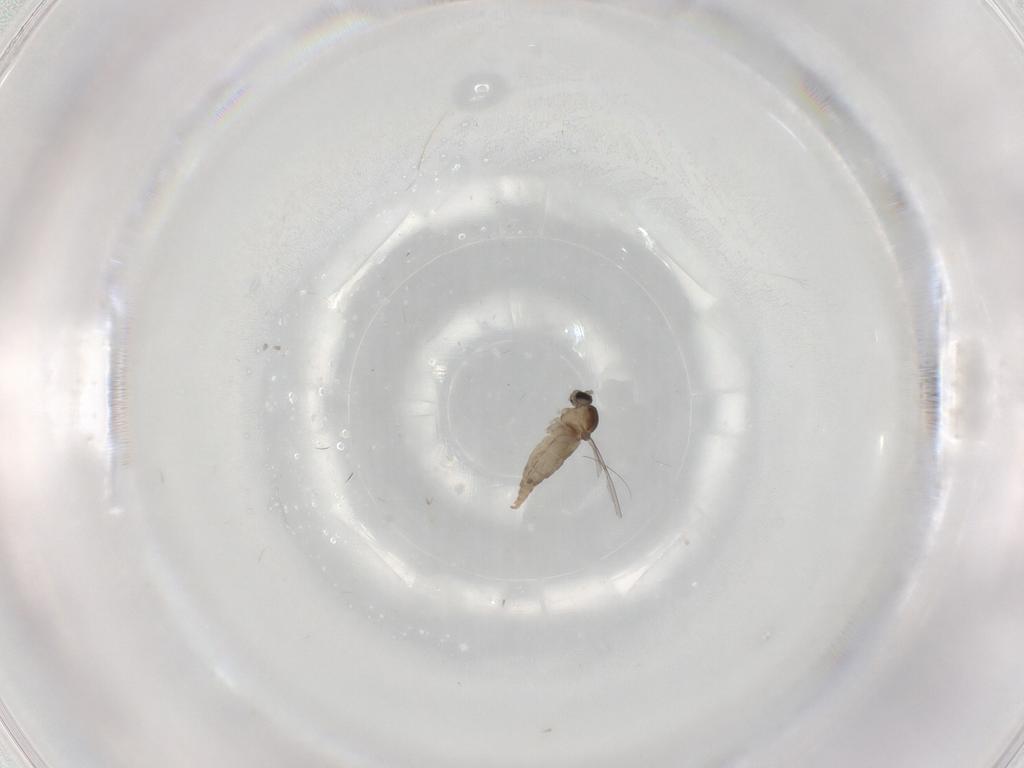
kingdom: Animalia
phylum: Arthropoda
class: Insecta
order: Diptera
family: Cecidomyiidae
